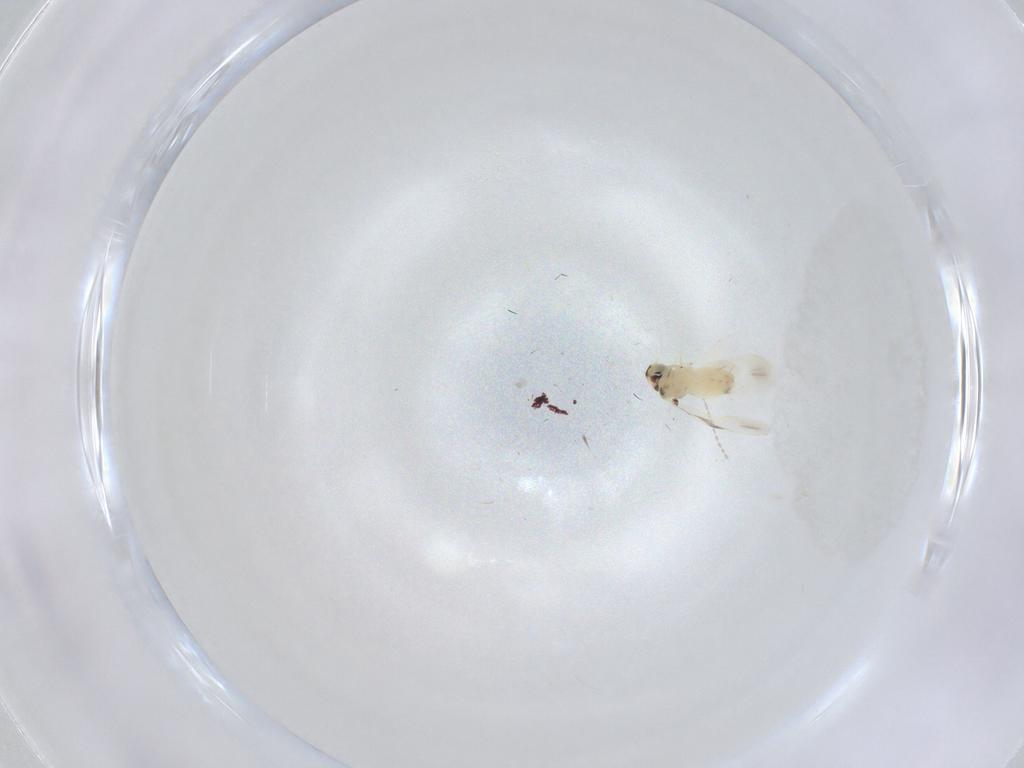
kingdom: Animalia
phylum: Arthropoda
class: Insecta
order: Hemiptera
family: Aleyrodidae
